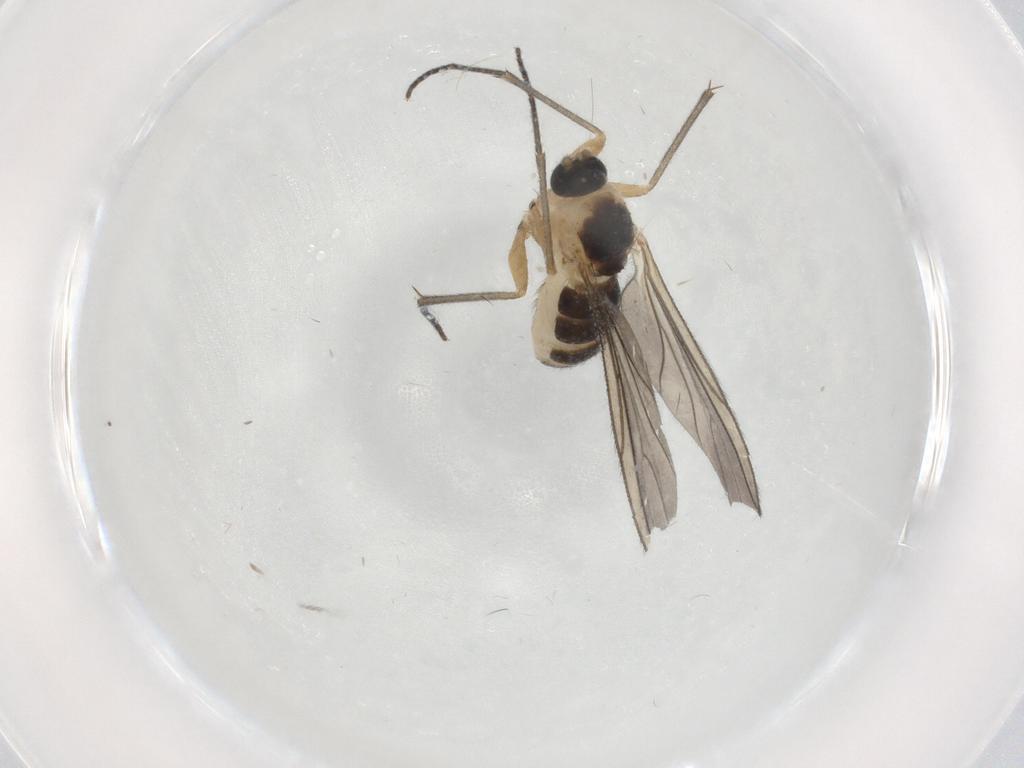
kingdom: Animalia
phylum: Arthropoda
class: Insecta
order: Diptera
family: Sciaridae
